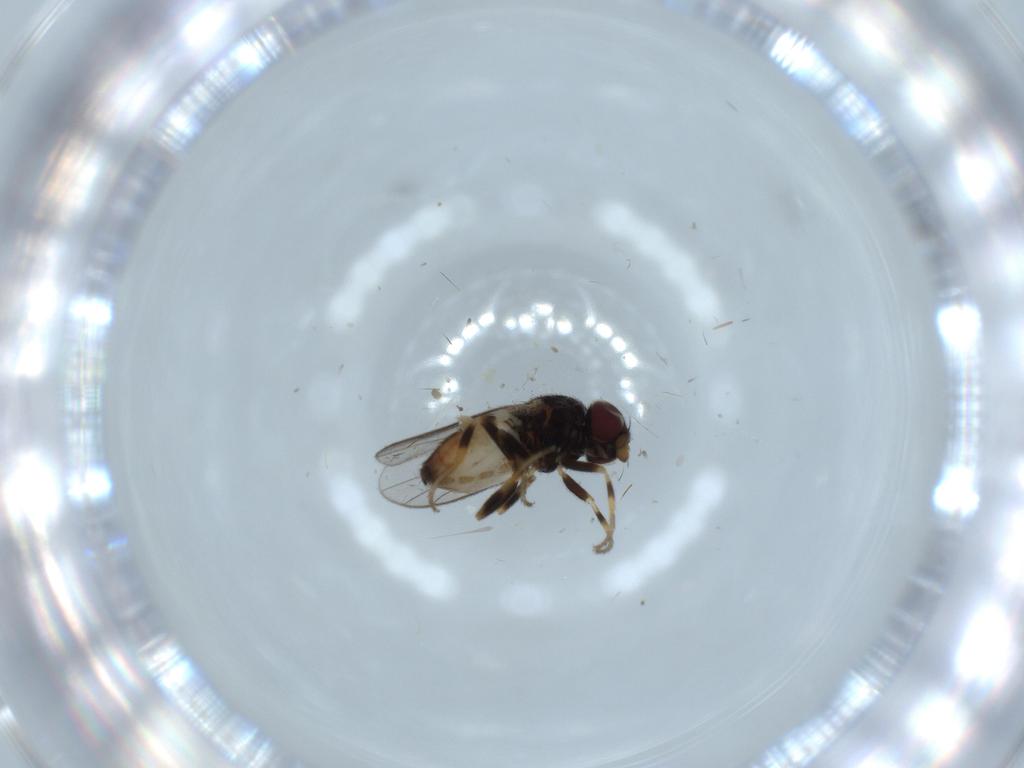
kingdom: Animalia
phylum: Arthropoda
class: Insecta
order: Diptera
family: Chloropidae
